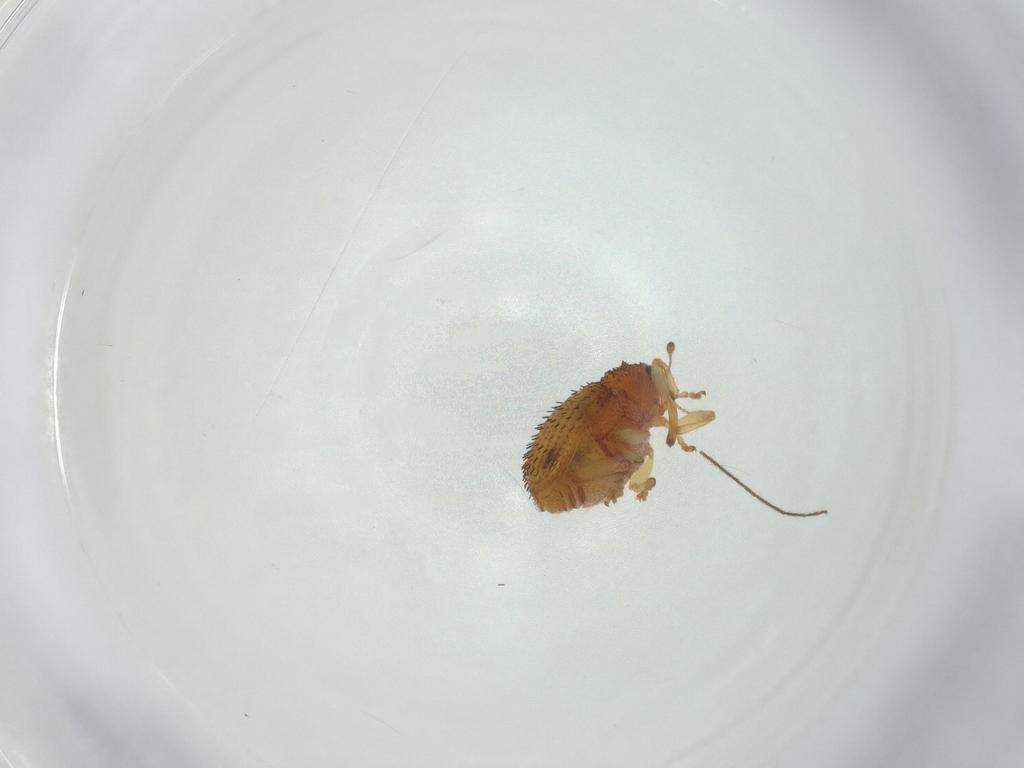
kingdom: Animalia
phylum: Arthropoda
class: Insecta
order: Coleoptera
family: Curculionidae
